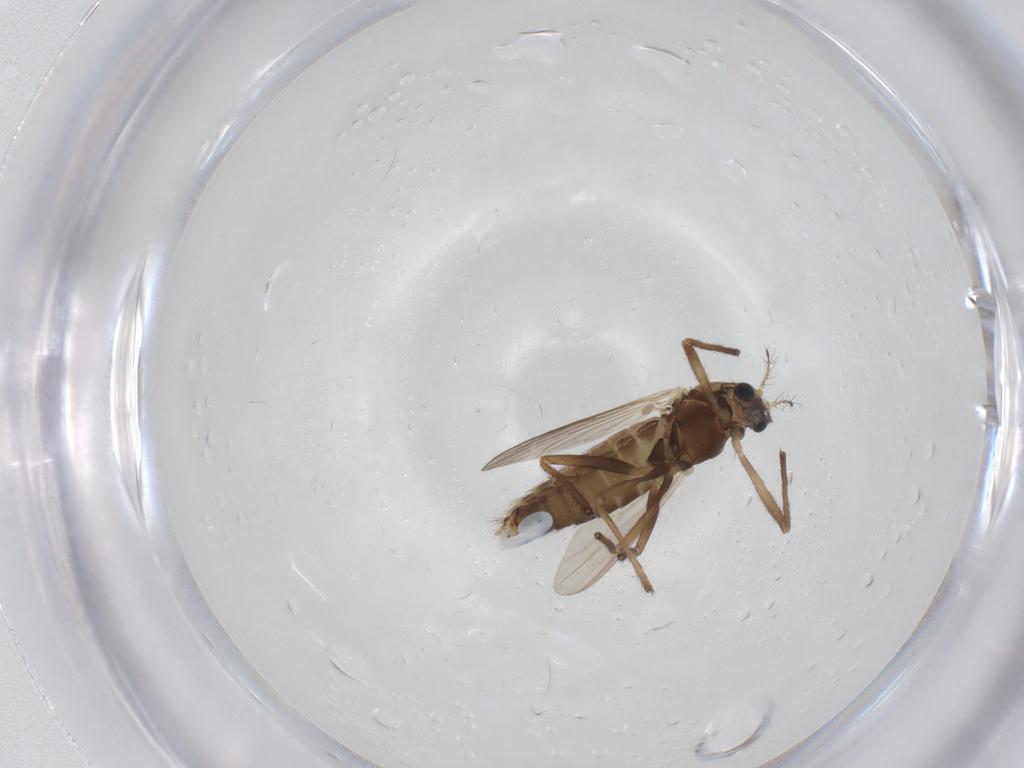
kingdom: Animalia
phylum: Arthropoda
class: Insecta
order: Diptera
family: Chironomidae
